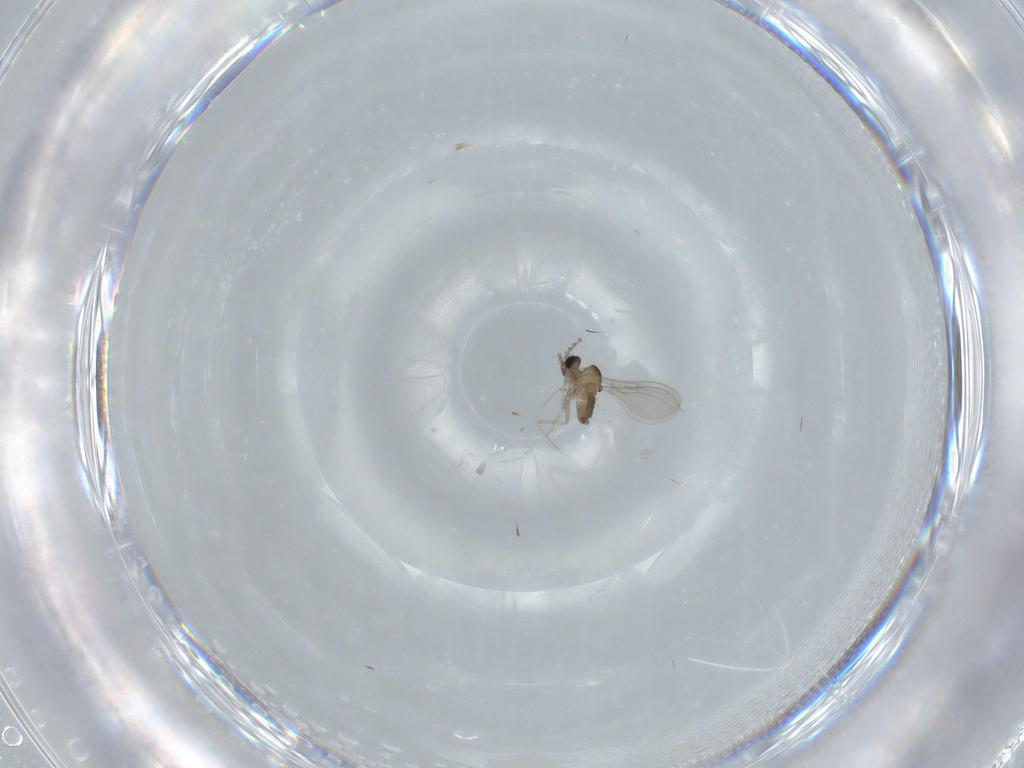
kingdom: Animalia
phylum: Arthropoda
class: Insecta
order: Diptera
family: Cecidomyiidae
